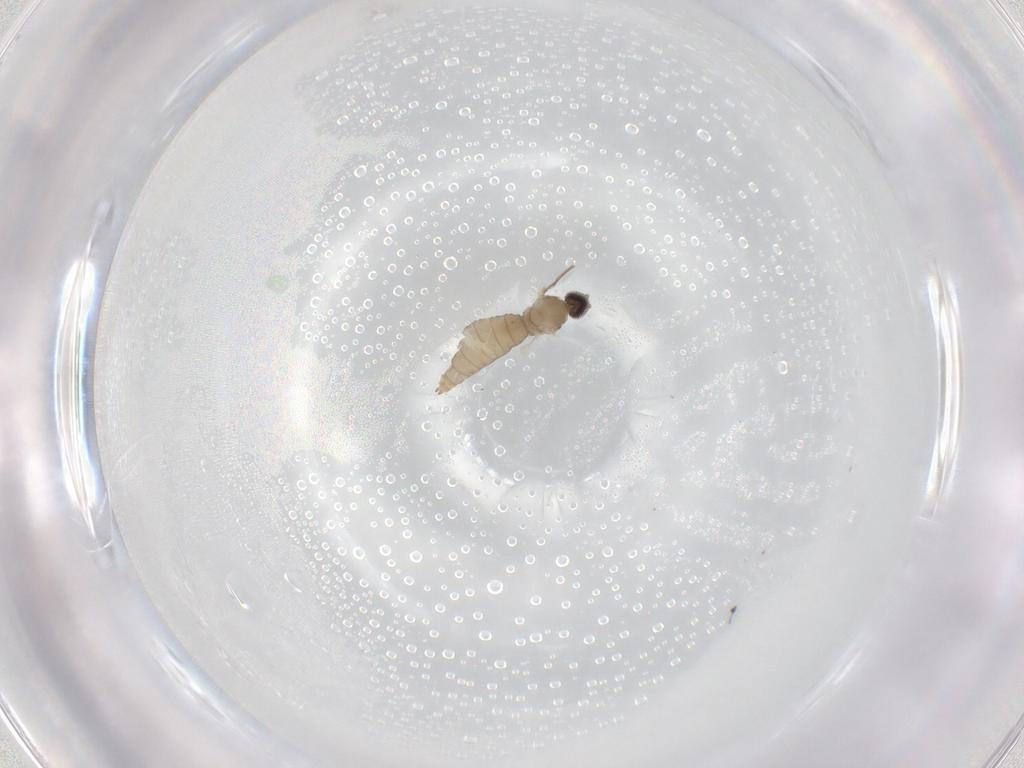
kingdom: Animalia
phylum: Arthropoda
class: Insecta
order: Diptera
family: Cecidomyiidae
